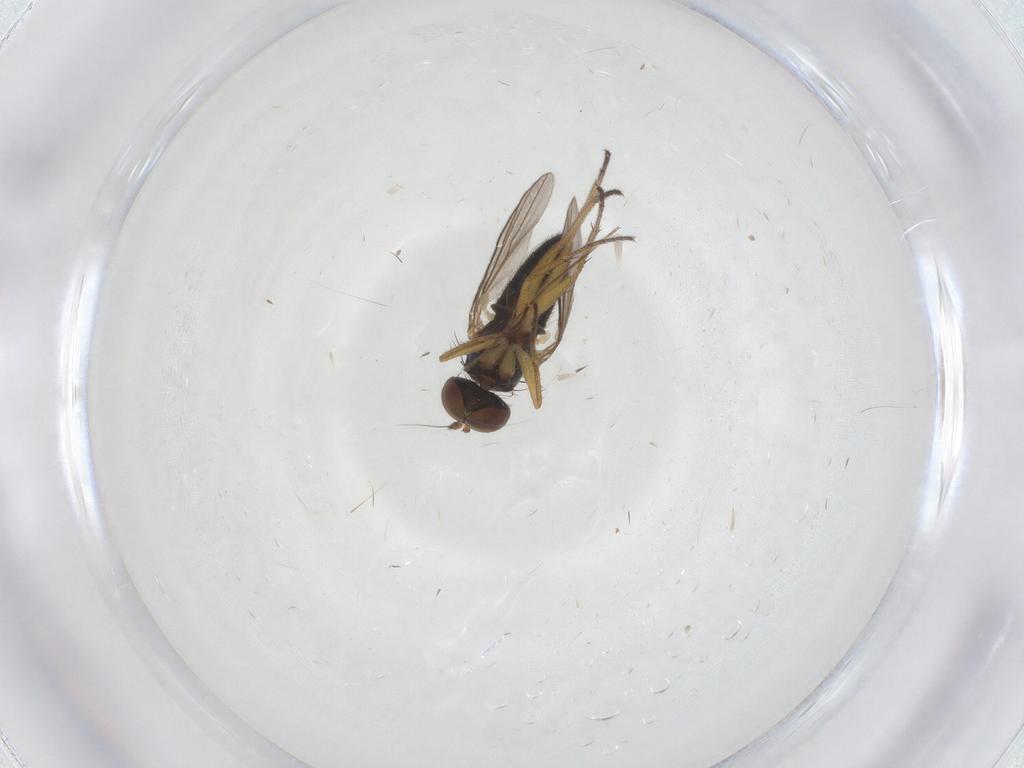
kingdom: Animalia
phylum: Arthropoda
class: Insecta
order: Diptera
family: Chironomidae
